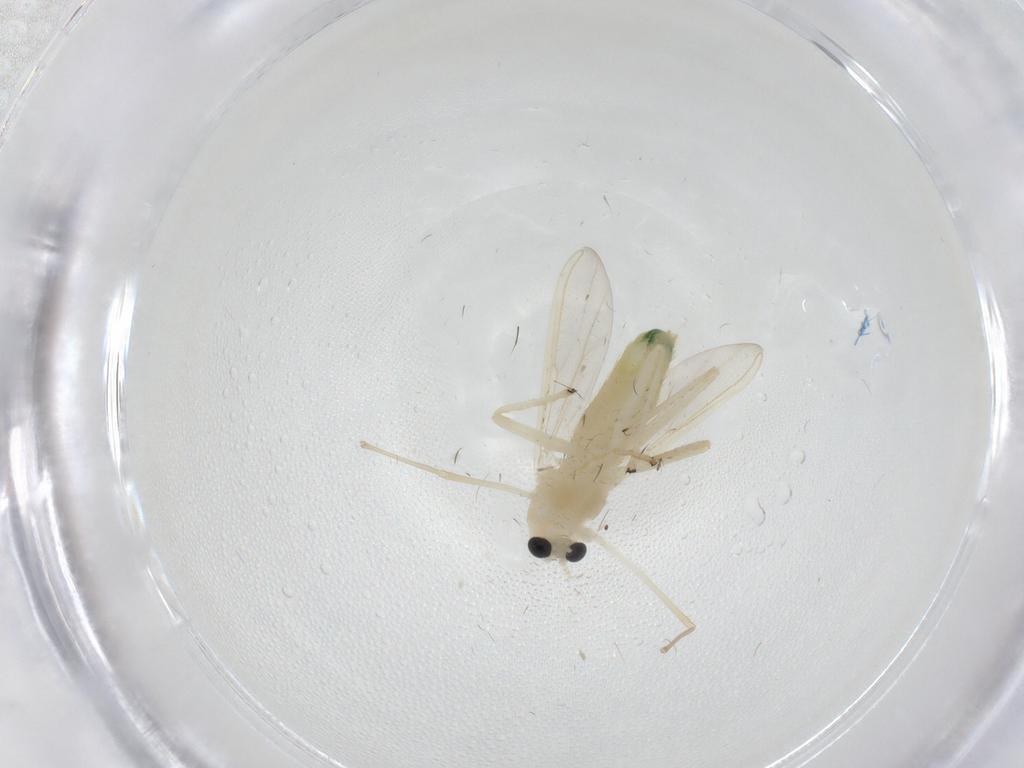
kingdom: Animalia
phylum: Arthropoda
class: Insecta
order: Diptera
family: Chironomidae
